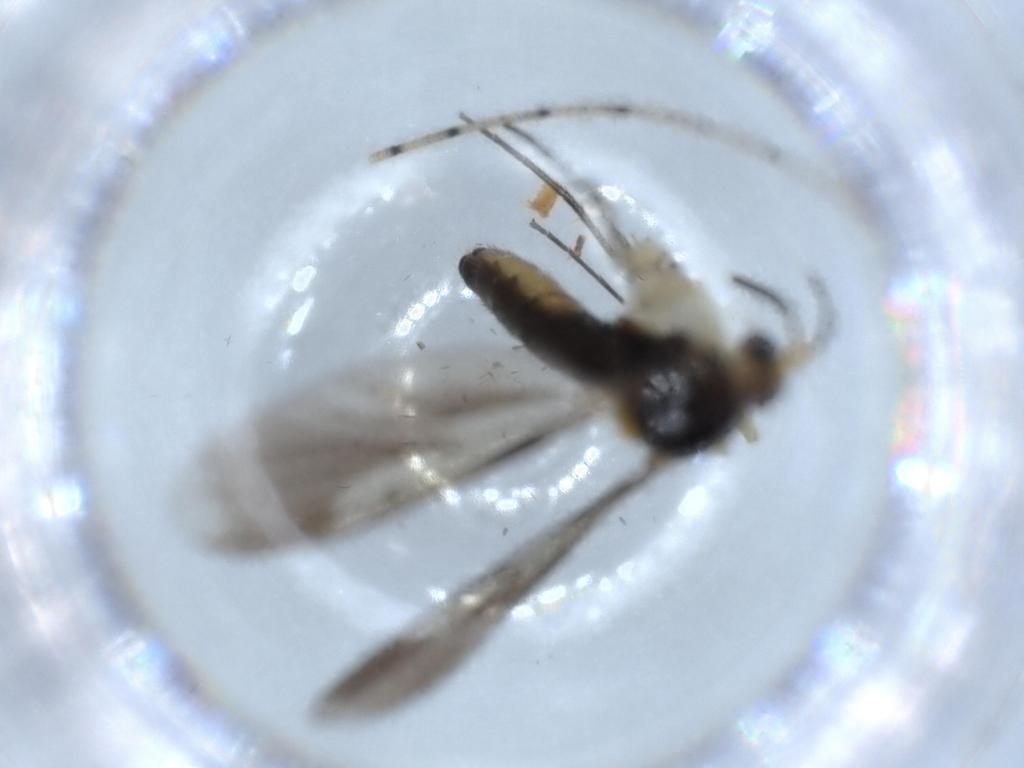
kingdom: Animalia
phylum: Arthropoda
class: Insecta
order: Diptera
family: Mycetophilidae
